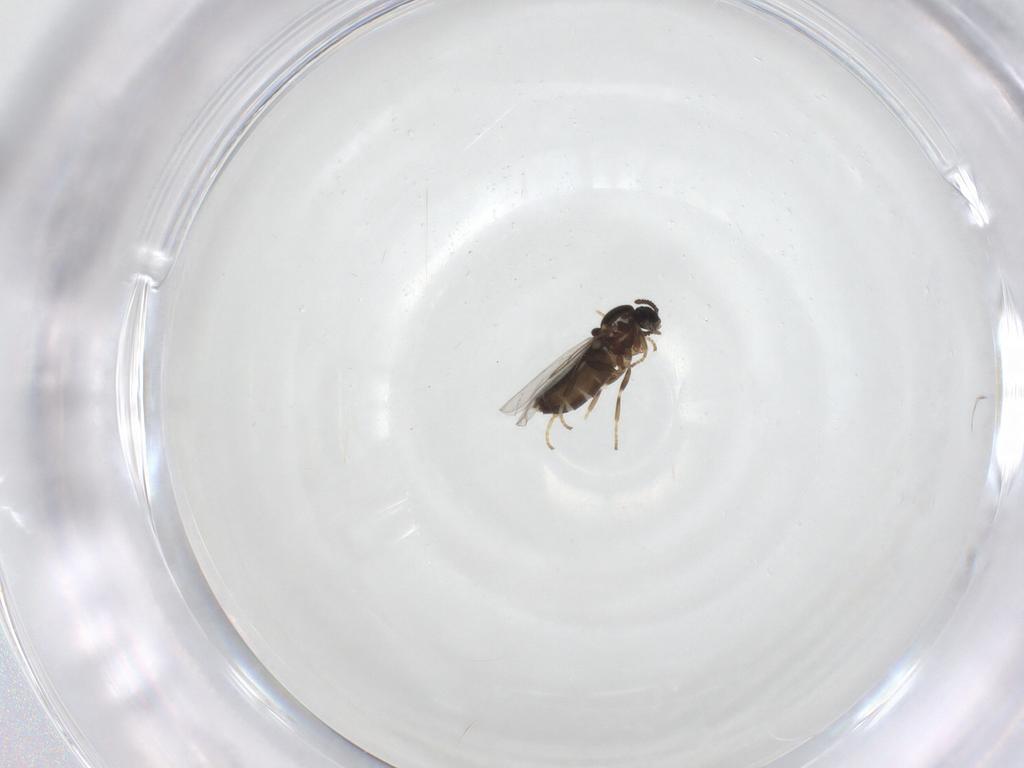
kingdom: Animalia
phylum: Arthropoda
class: Insecta
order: Diptera
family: Scatopsidae
